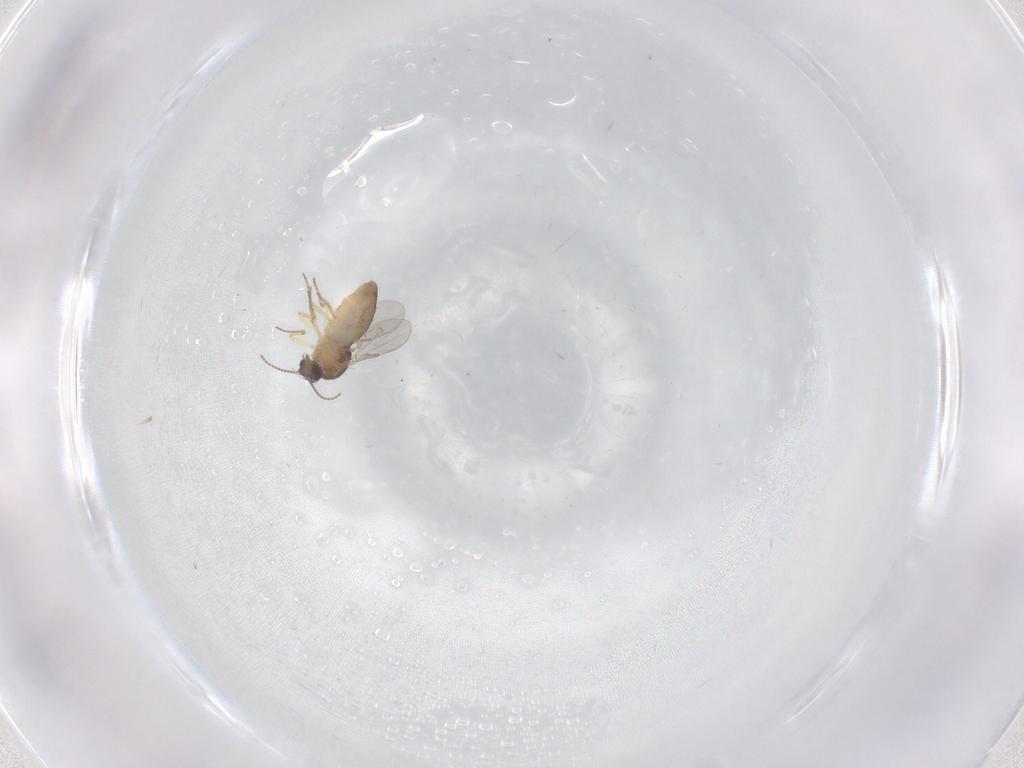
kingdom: Animalia
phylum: Arthropoda
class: Insecta
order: Diptera
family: Ceratopogonidae
